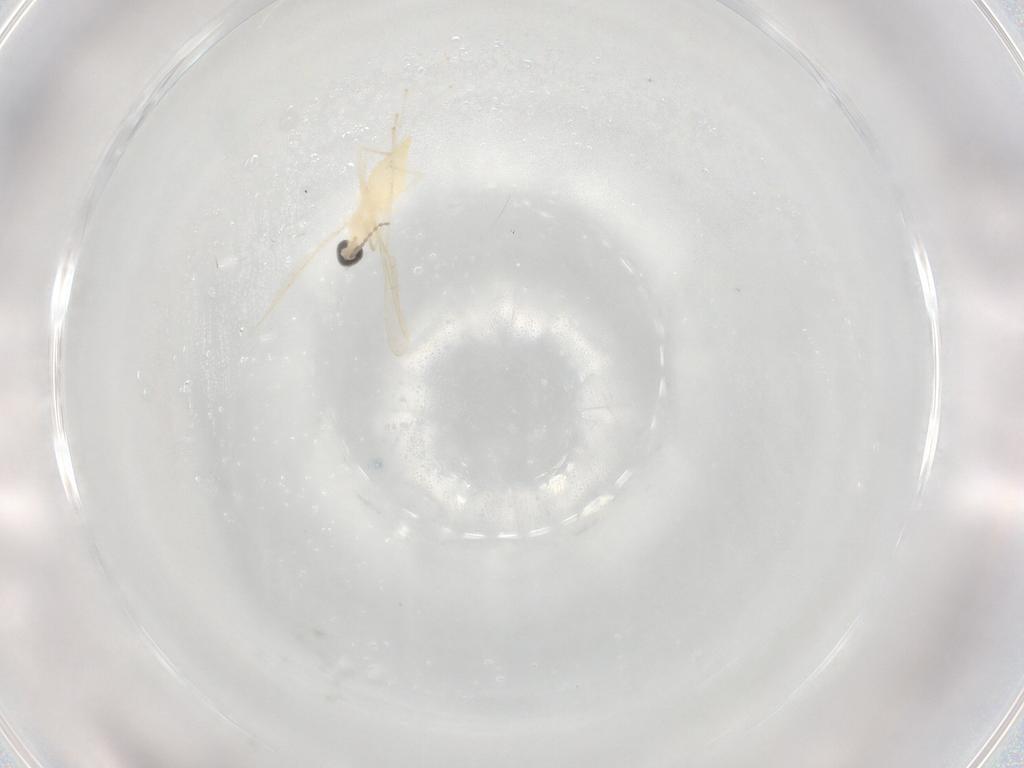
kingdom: Animalia
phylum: Arthropoda
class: Insecta
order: Diptera
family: Cecidomyiidae
